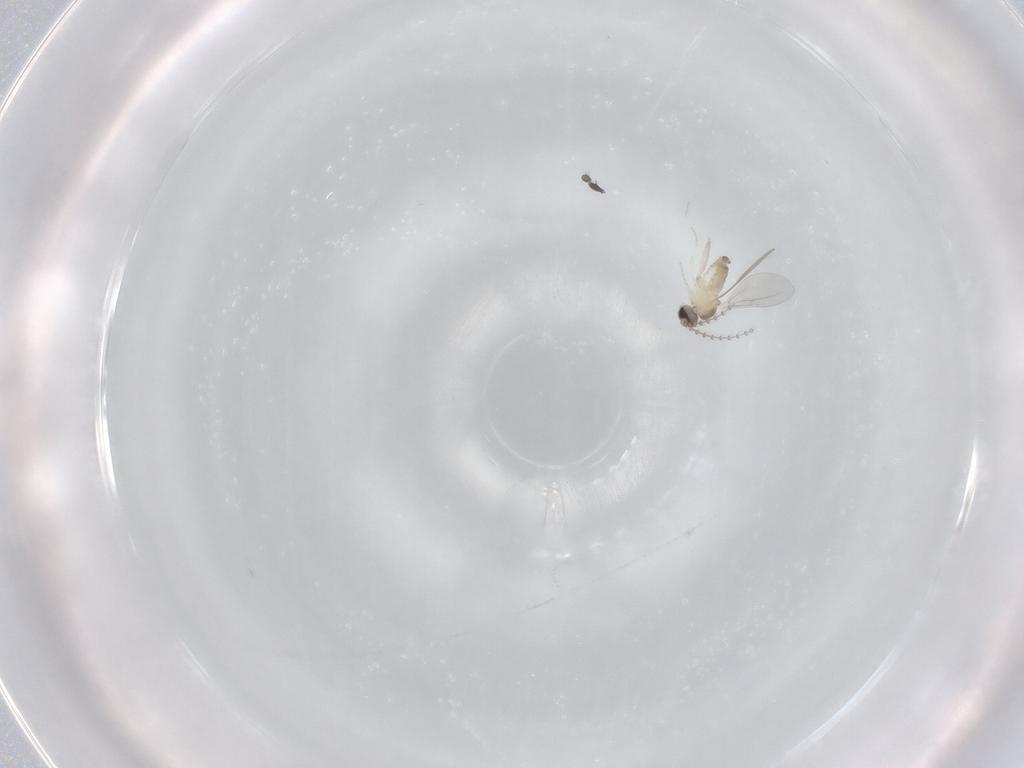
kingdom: Animalia
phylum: Arthropoda
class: Insecta
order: Diptera
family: Cecidomyiidae
